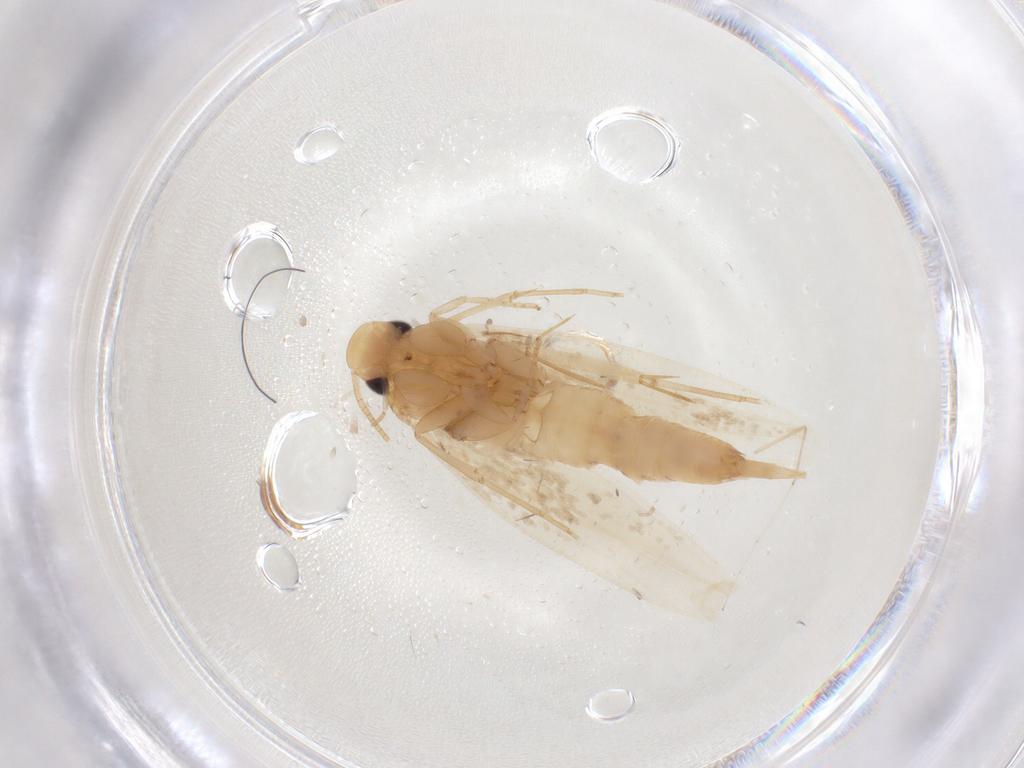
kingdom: Animalia
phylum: Arthropoda
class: Insecta
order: Lepidoptera
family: Tineidae
